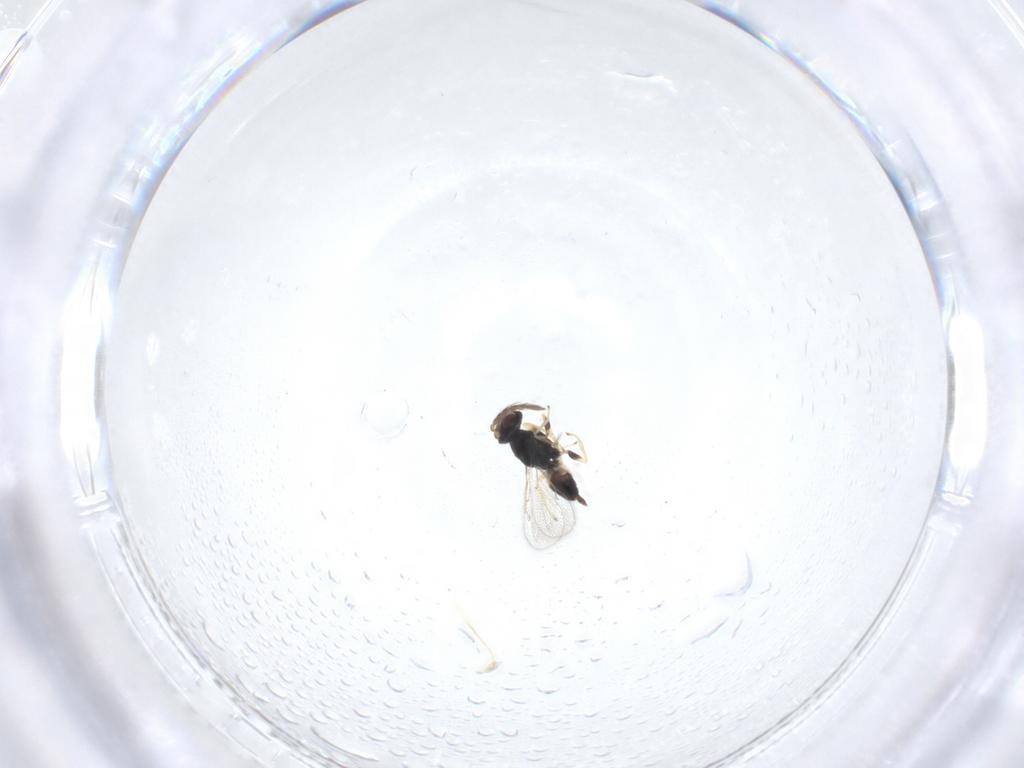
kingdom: Animalia
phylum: Arthropoda
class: Insecta
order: Hymenoptera
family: Eulophidae
